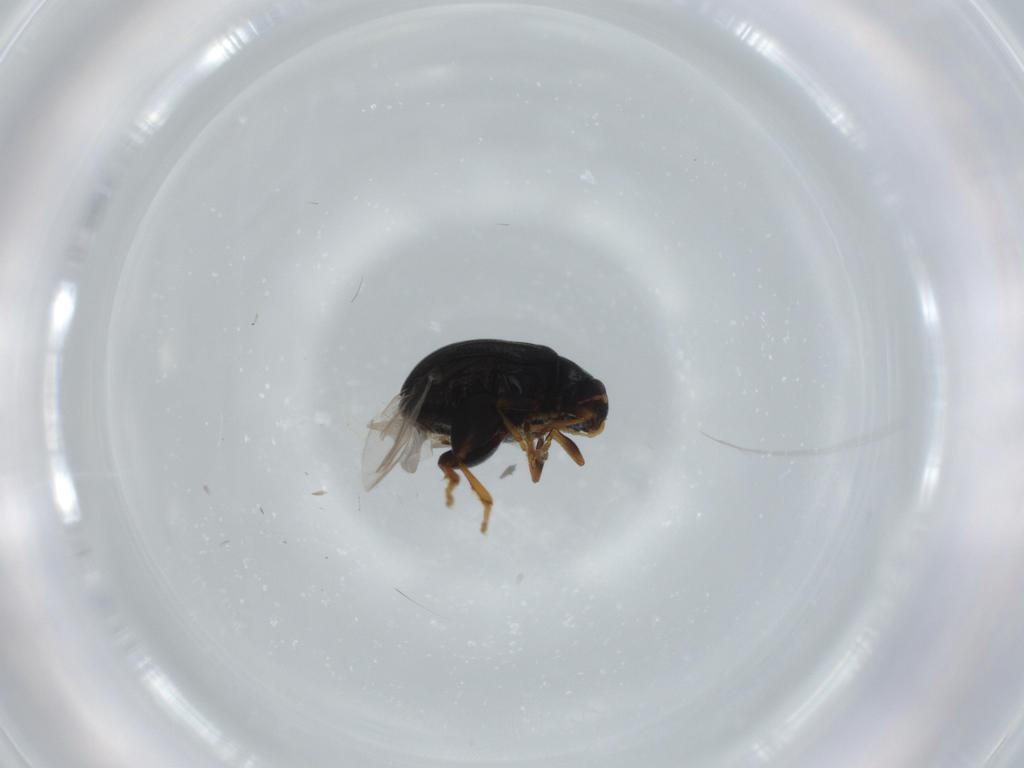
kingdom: Animalia
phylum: Arthropoda
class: Insecta
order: Coleoptera
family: Chrysomelidae
